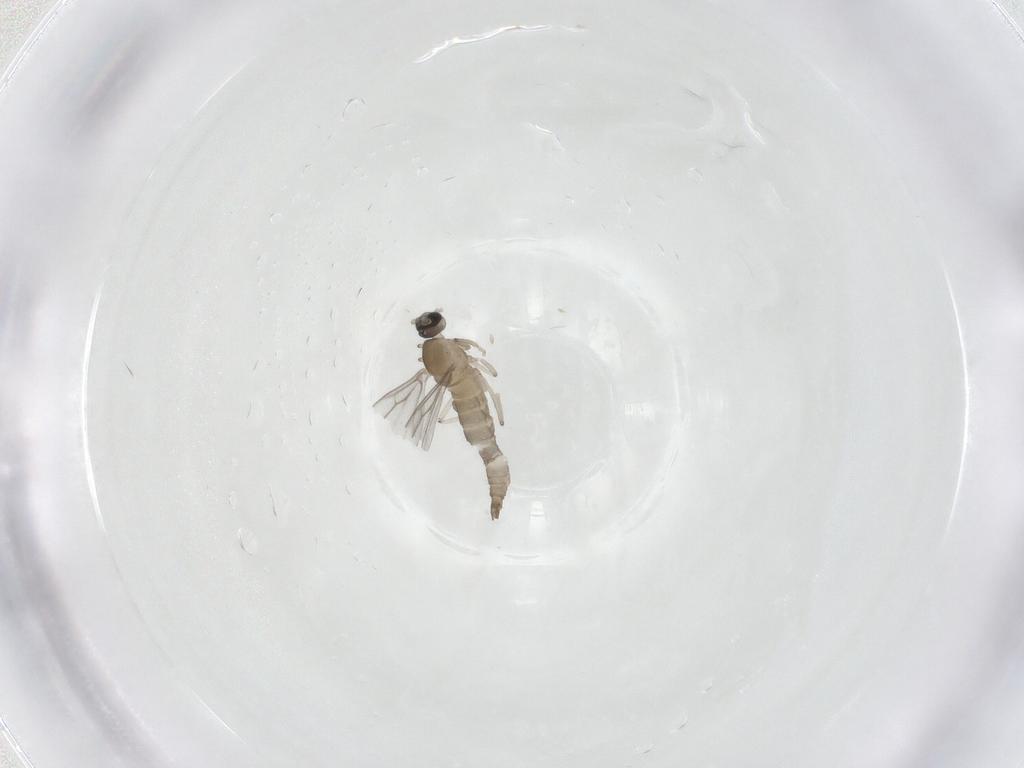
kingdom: Animalia
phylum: Arthropoda
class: Insecta
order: Diptera
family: Cecidomyiidae
